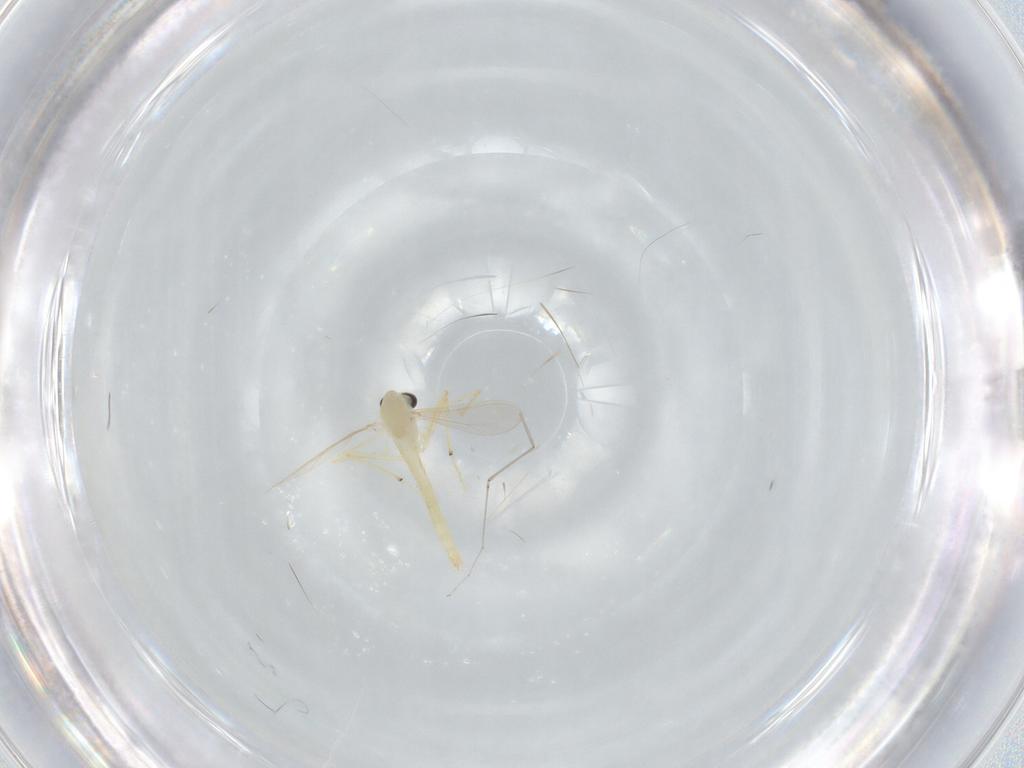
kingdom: Animalia
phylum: Arthropoda
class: Insecta
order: Diptera
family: Chironomidae
